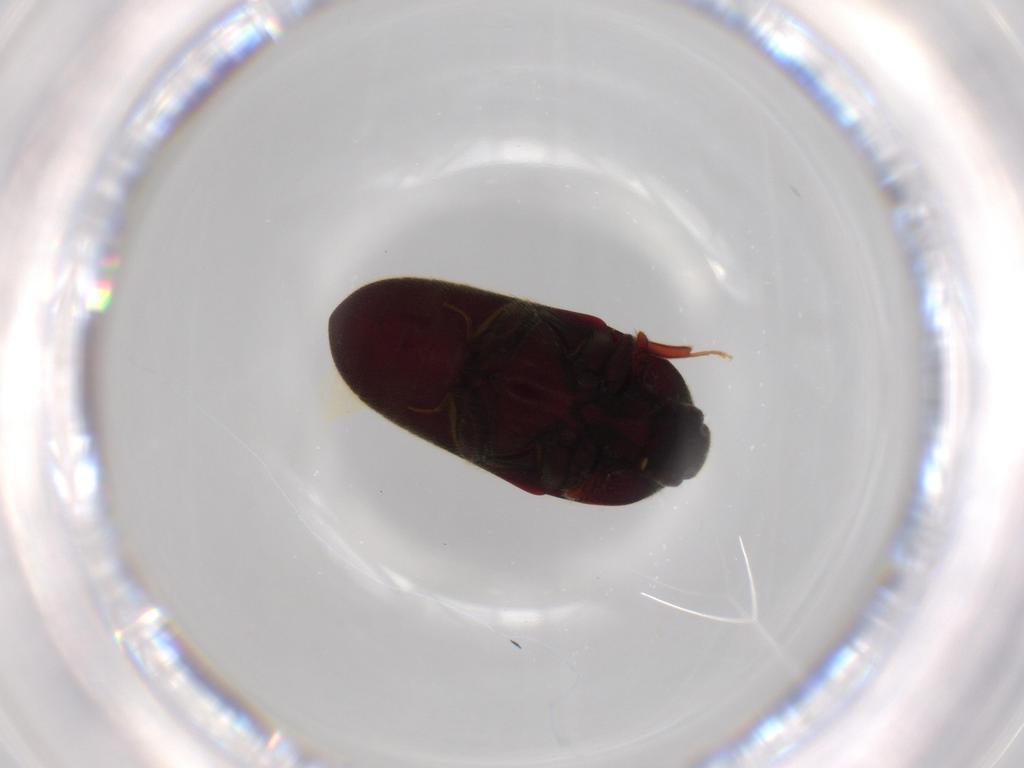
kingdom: Animalia
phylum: Arthropoda
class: Insecta
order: Coleoptera
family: Throscidae
